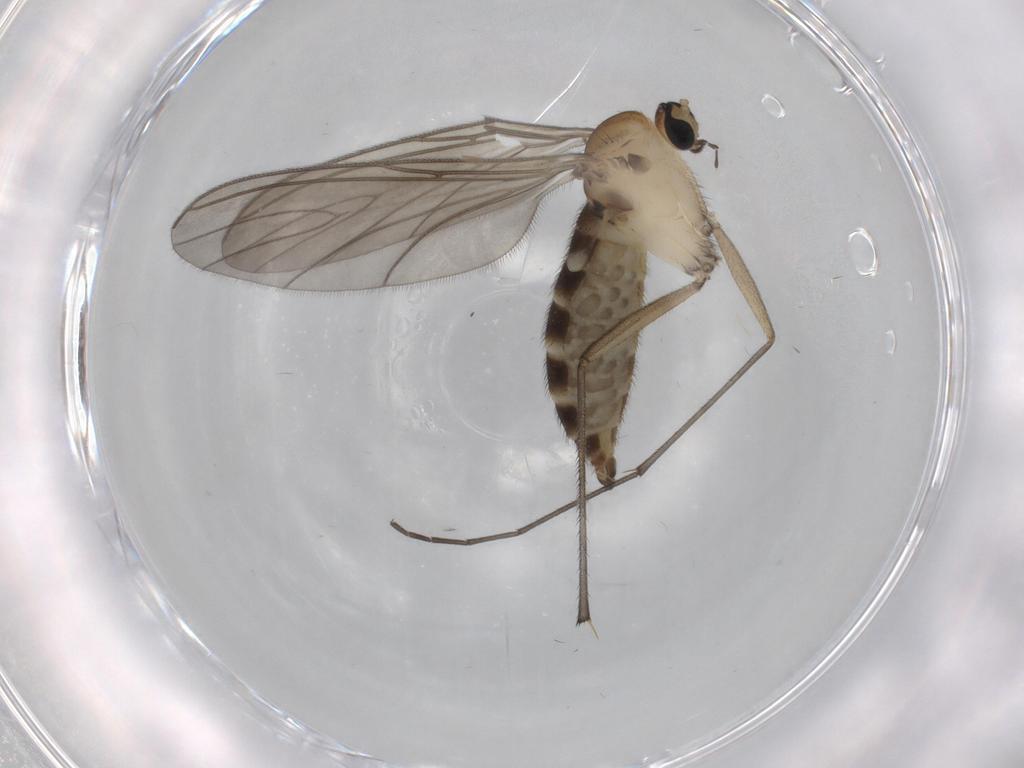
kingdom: Animalia
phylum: Arthropoda
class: Insecta
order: Diptera
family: Sciaridae
